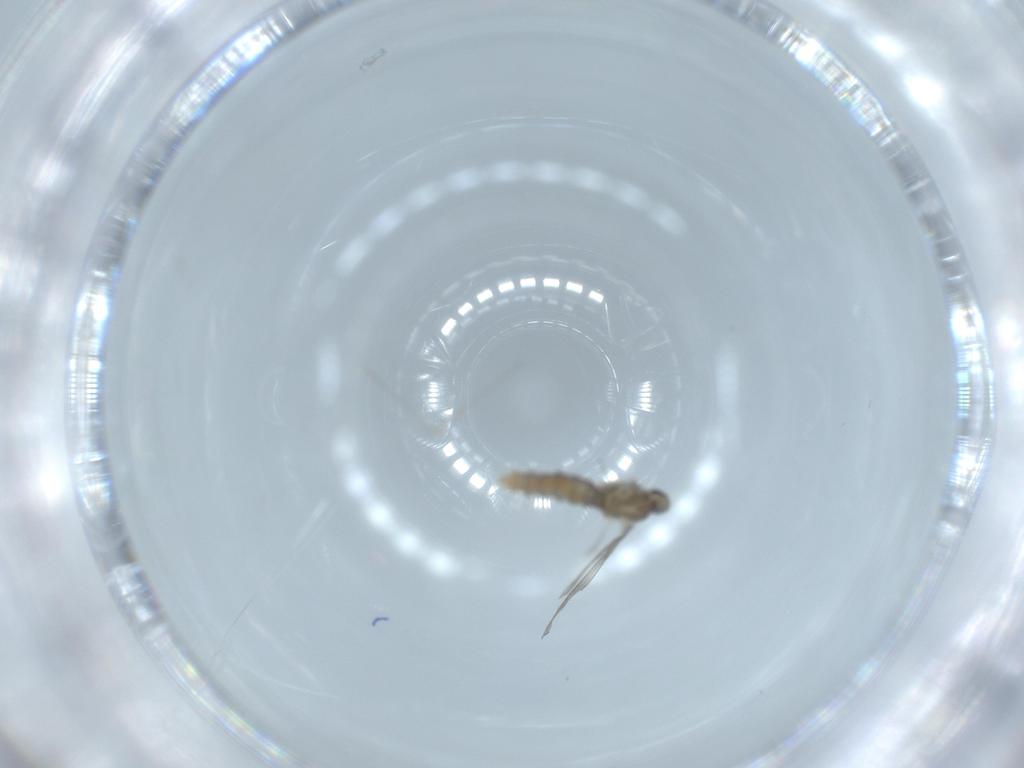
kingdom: Animalia
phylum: Arthropoda
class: Insecta
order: Diptera
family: Cecidomyiidae
